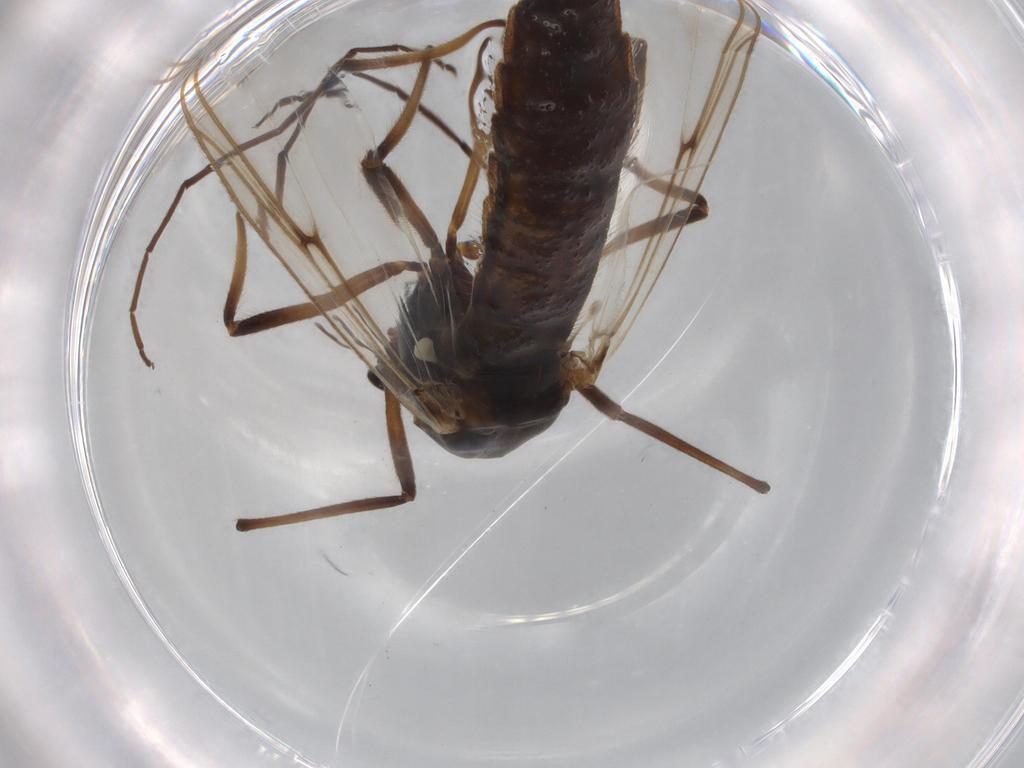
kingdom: Animalia
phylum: Arthropoda
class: Insecta
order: Diptera
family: Chironomidae
